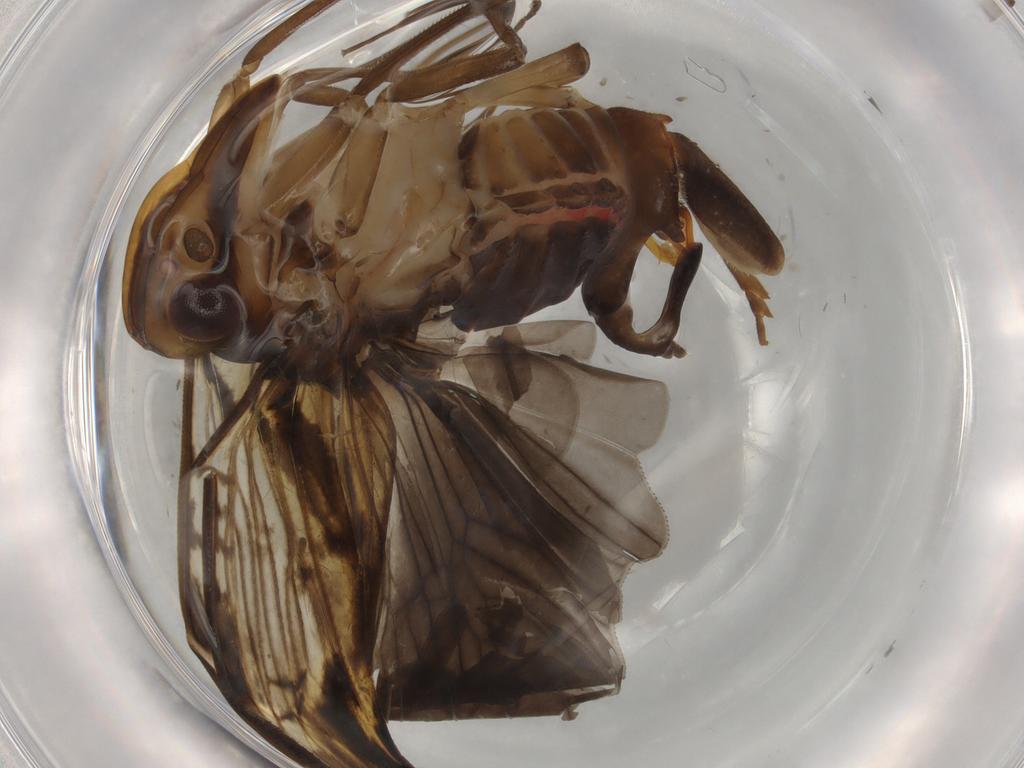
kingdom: Animalia
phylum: Arthropoda
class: Insecta
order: Hemiptera
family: Cixiidae
